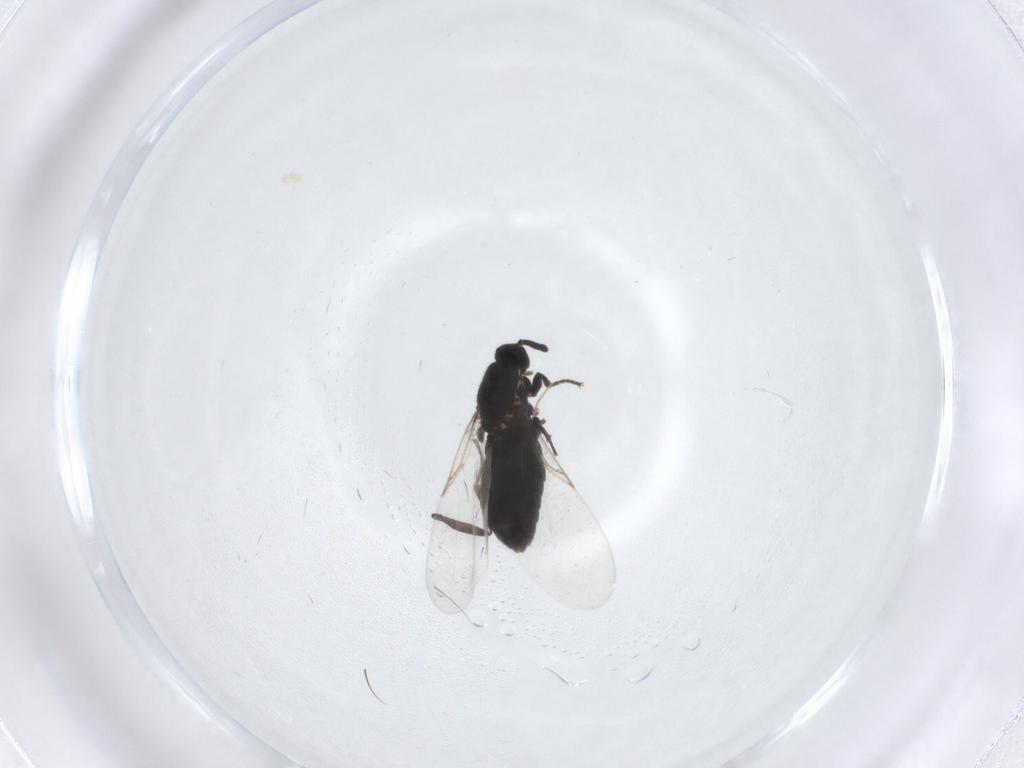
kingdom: Animalia
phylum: Arthropoda
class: Insecta
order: Diptera
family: Scatopsidae
